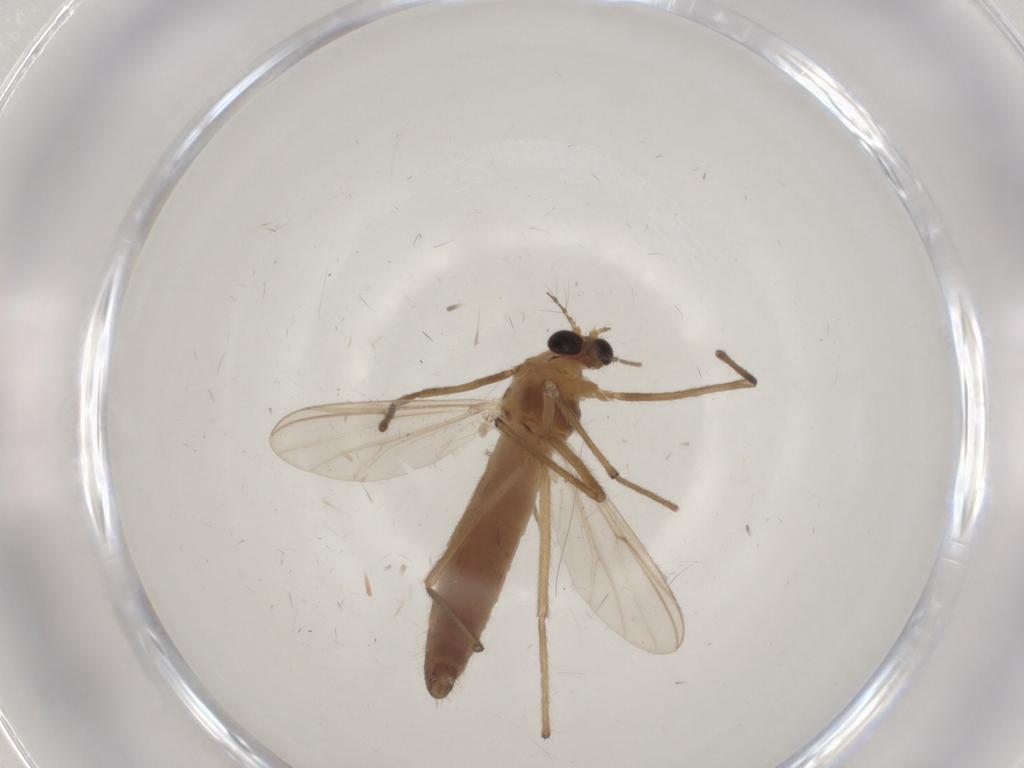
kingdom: Animalia
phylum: Arthropoda
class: Insecta
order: Diptera
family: Chironomidae
